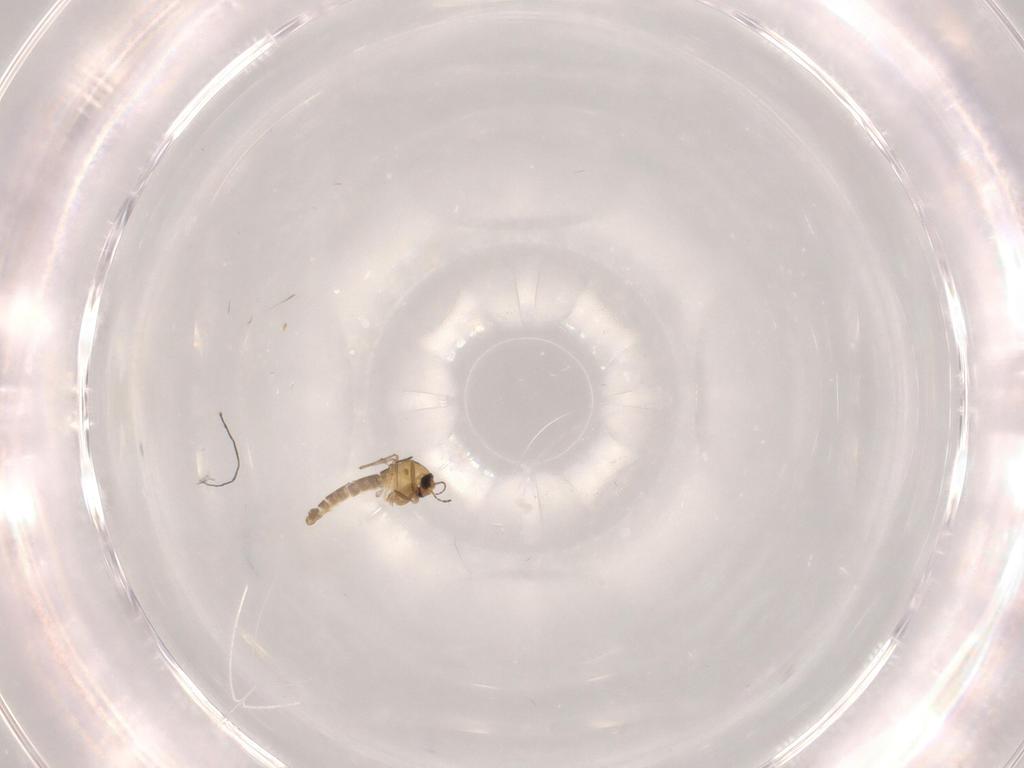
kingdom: Animalia
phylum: Arthropoda
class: Insecta
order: Diptera
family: Chironomidae
